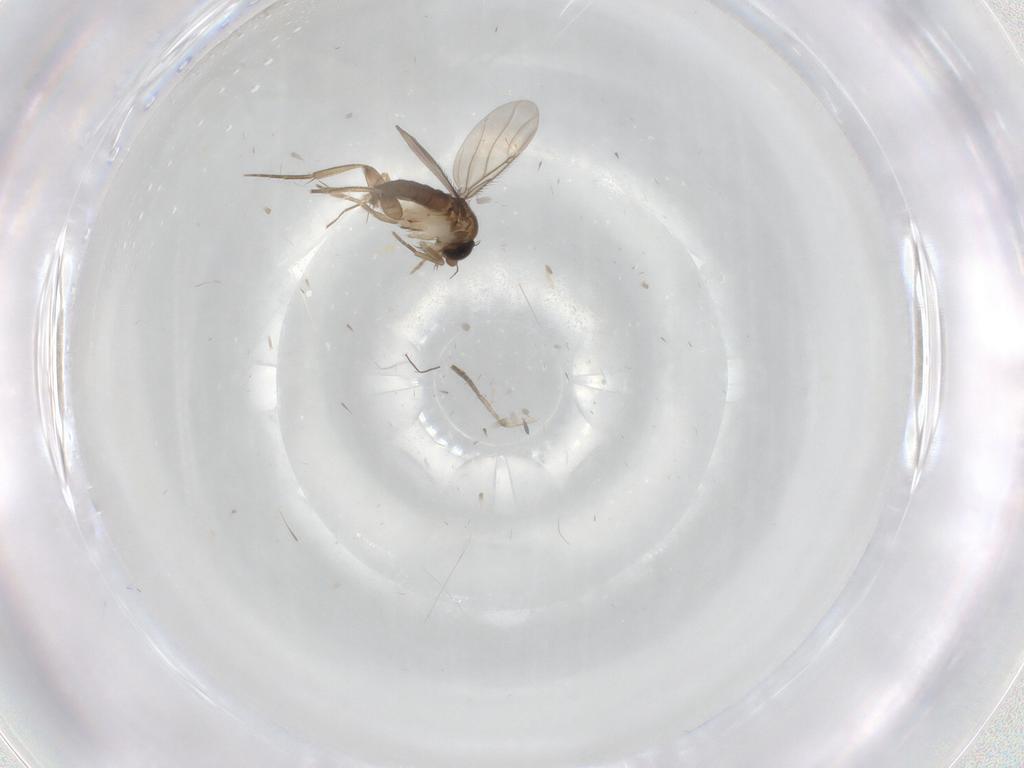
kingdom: Animalia
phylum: Arthropoda
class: Insecta
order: Diptera
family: Phoridae
